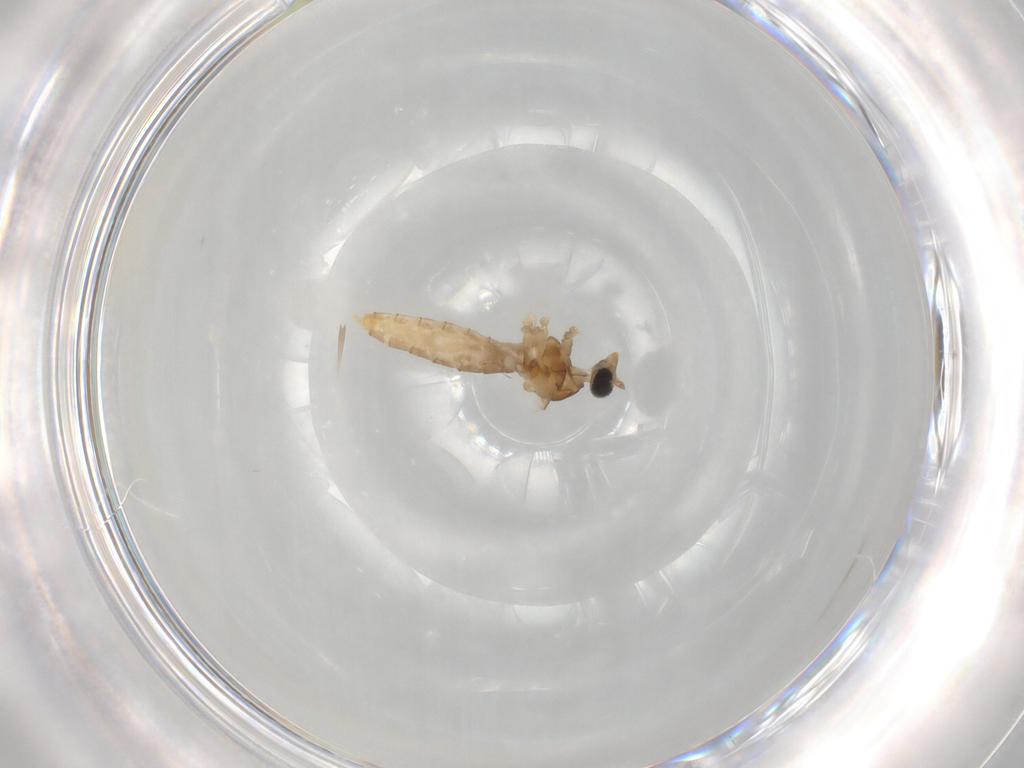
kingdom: Animalia
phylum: Arthropoda
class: Insecta
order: Diptera
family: Cecidomyiidae
